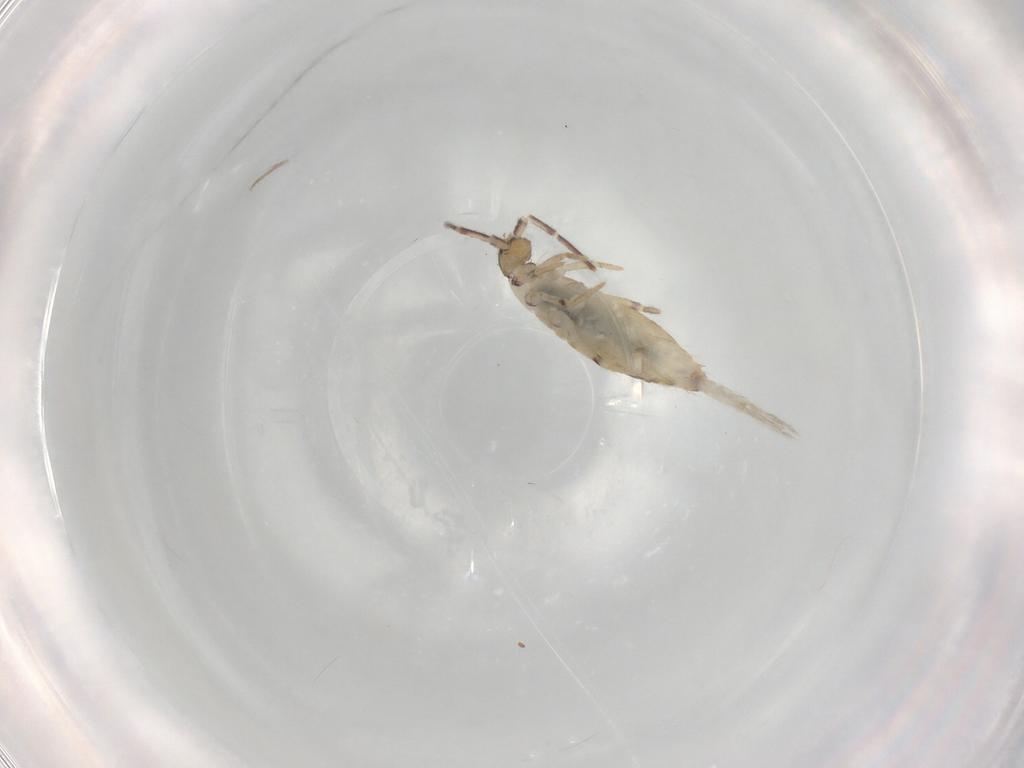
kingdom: Animalia
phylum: Arthropoda
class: Collembola
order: Entomobryomorpha
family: Entomobryidae
